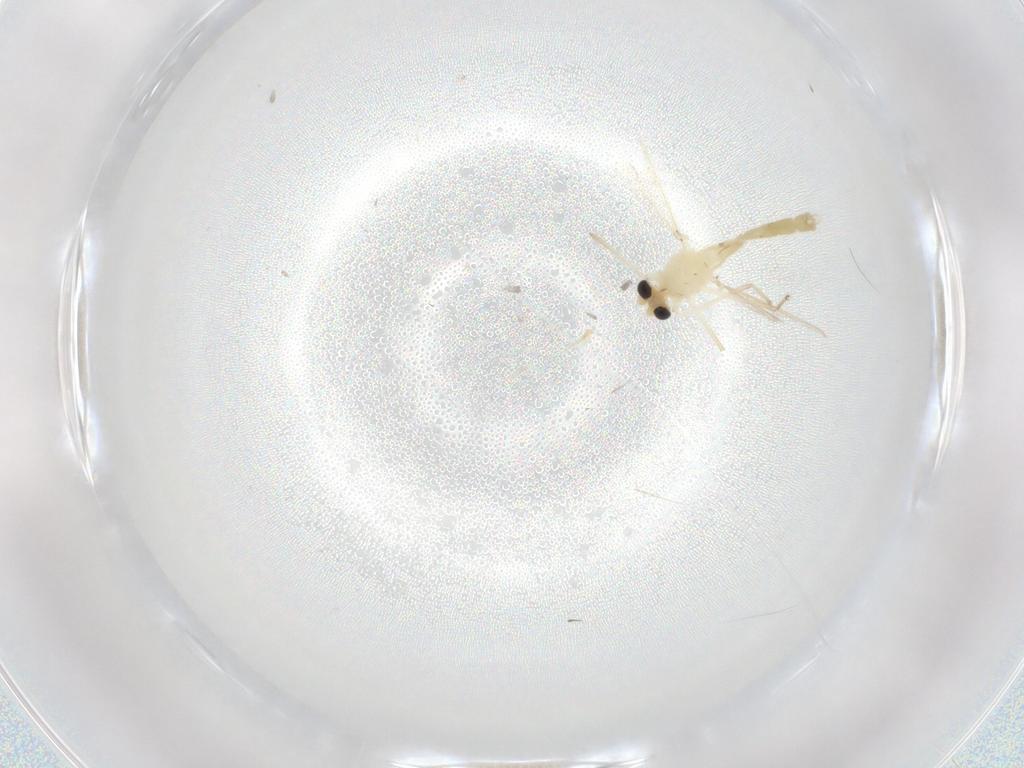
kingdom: Animalia
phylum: Arthropoda
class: Insecta
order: Diptera
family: Chironomidae
